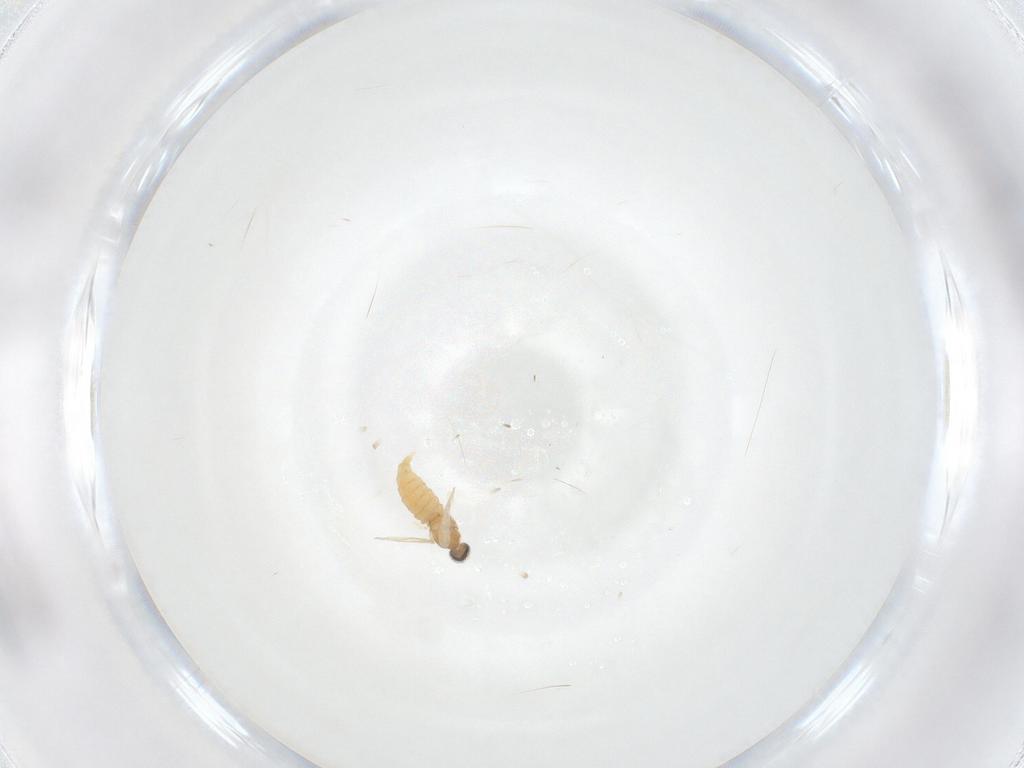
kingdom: Animalia
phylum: Arthropoda
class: Insecta
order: Diptera
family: Cecidomyiidae
